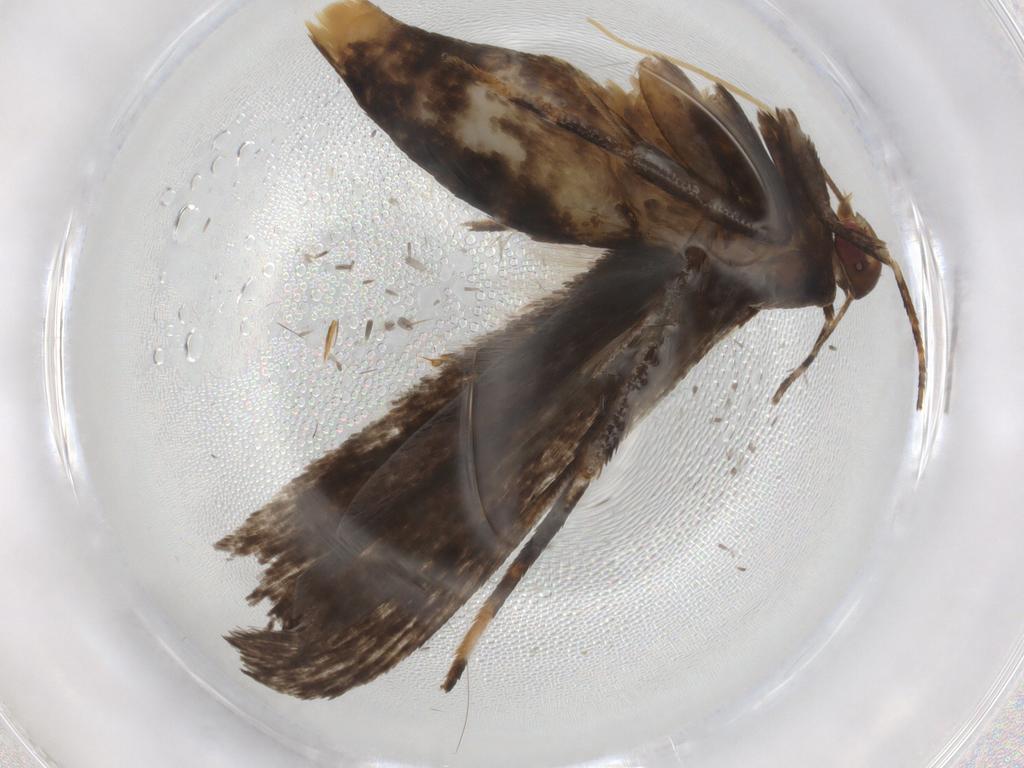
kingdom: Animalia
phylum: Arthropoda
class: Insecta
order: Lepidoptera
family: Gelechiidae
